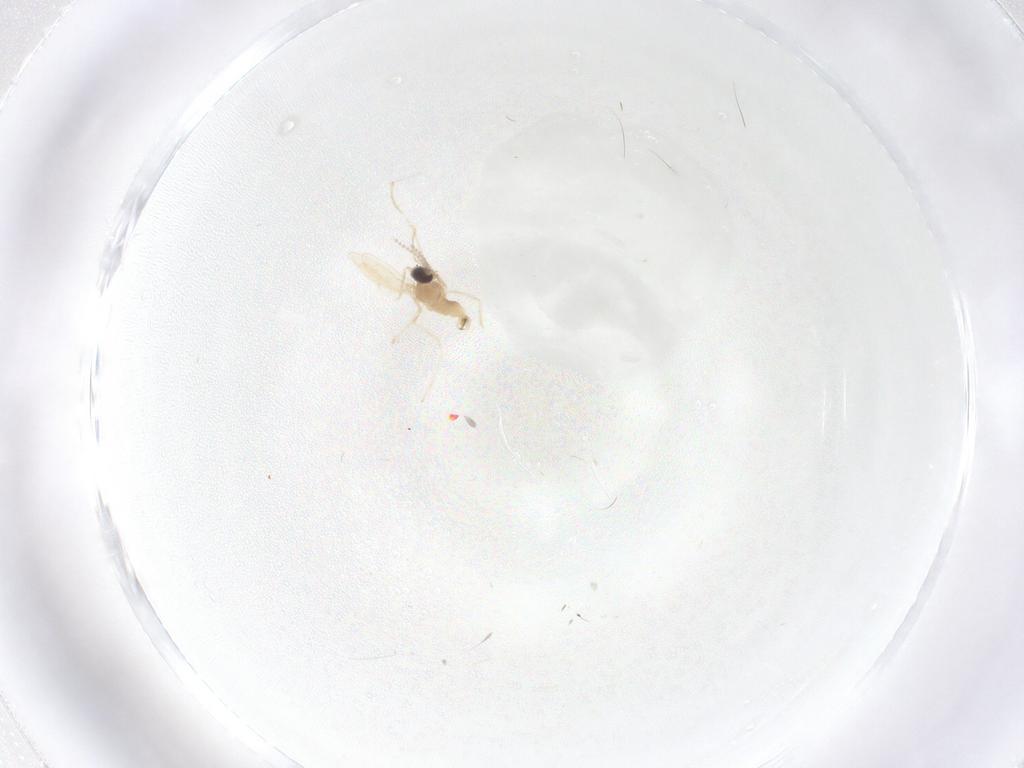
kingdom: Animalia
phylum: Arthropoda
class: Insecta
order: Diptera
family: Cecidomyiidae
